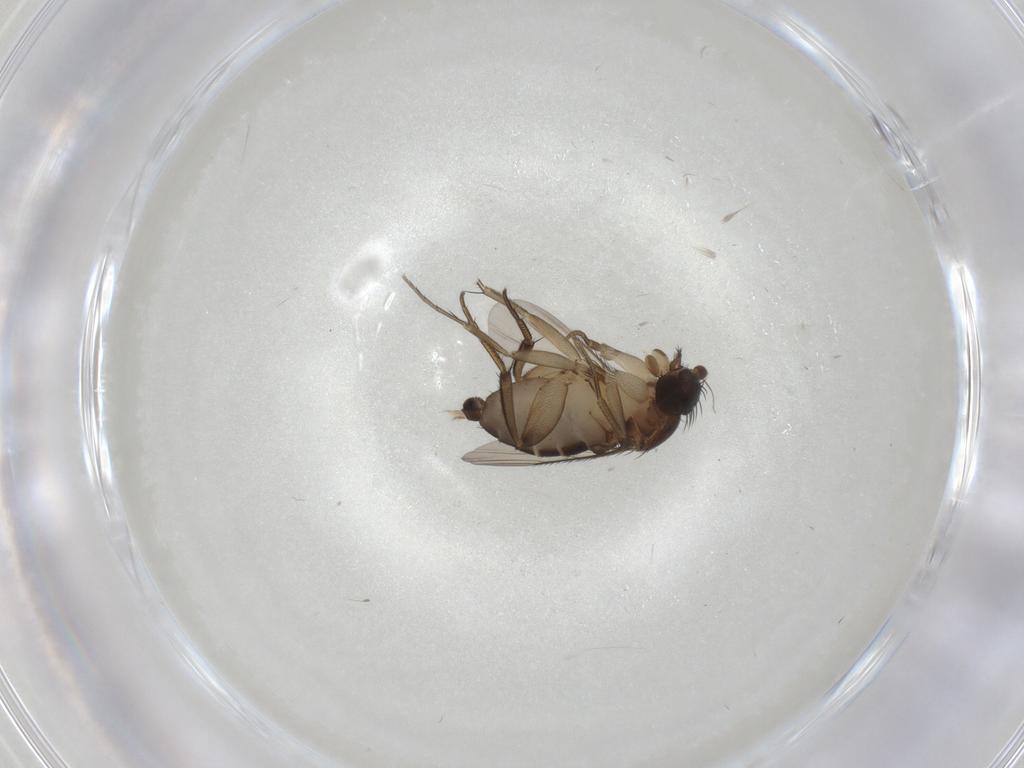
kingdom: Animalia
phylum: Arthropoda
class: Insecta
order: Diptera
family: Phoridae
